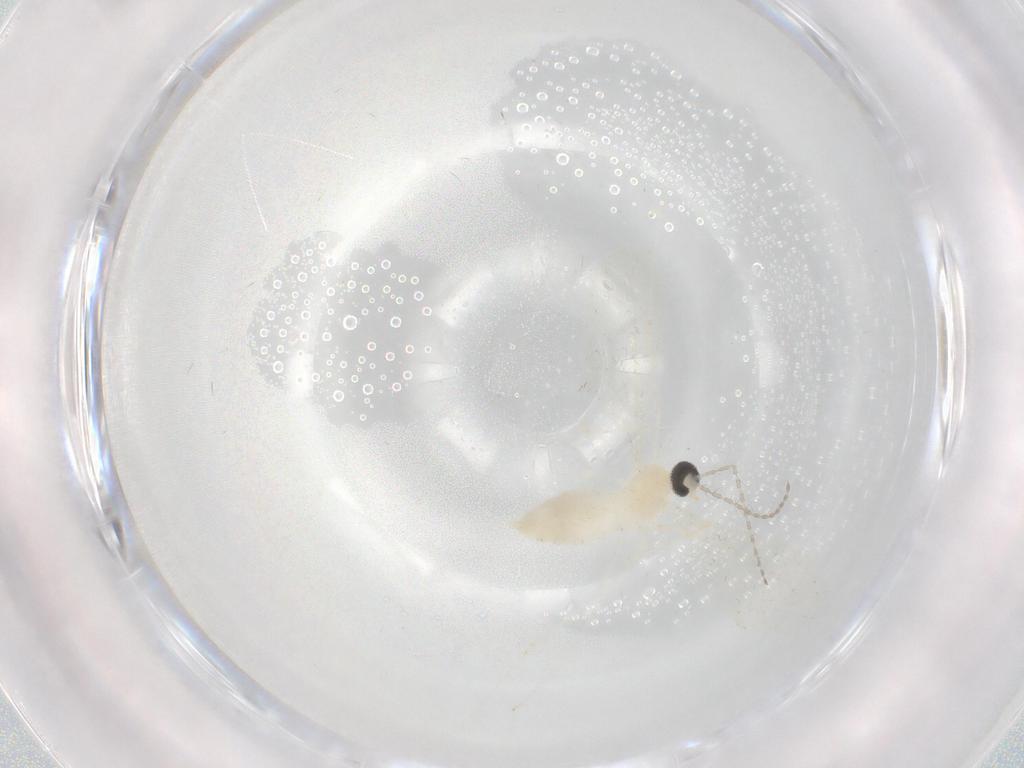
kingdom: Animalia
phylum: Arthropoda
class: Insecta
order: Diptera
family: Cecidomyiidae
